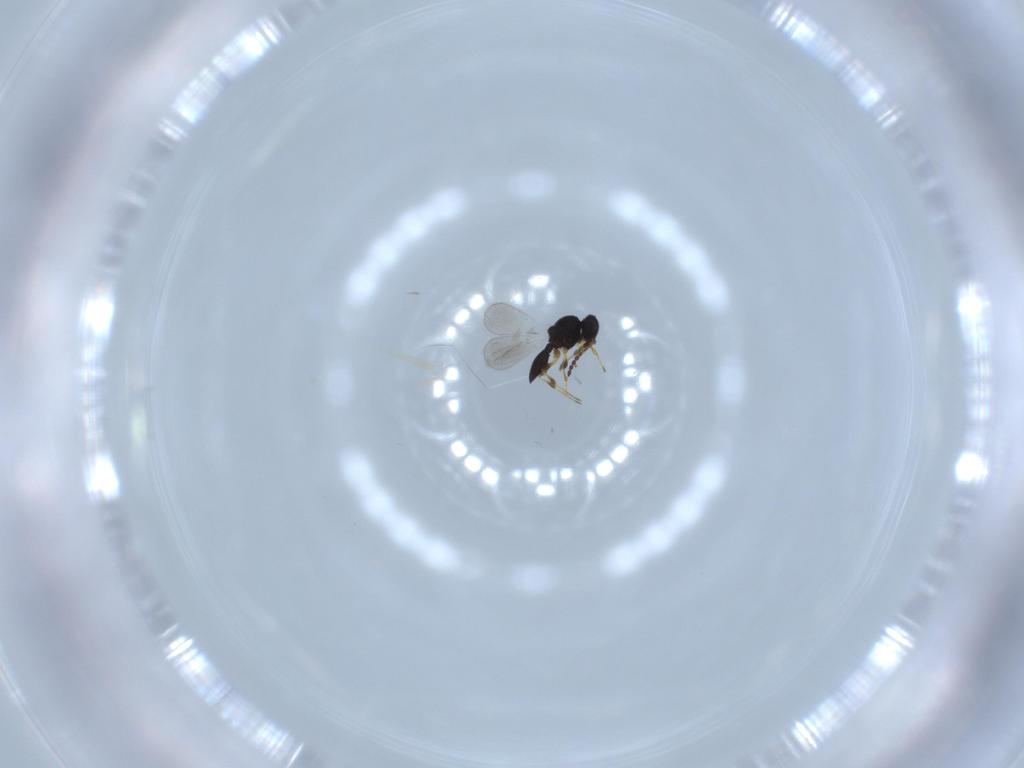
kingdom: Animalia
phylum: Arthropoda
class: Insecta
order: Hymenoptera
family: Platygastridae
